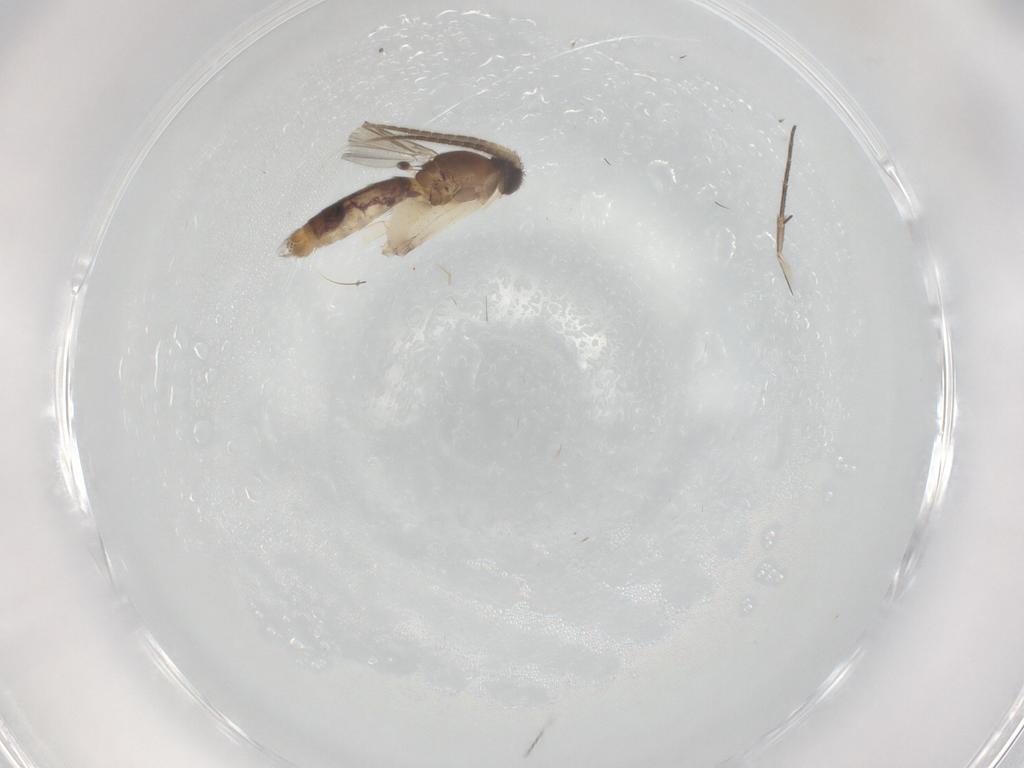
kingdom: Animalia
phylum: Arthropoda
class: Insecta
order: Diptera
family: Mycetophilidae
